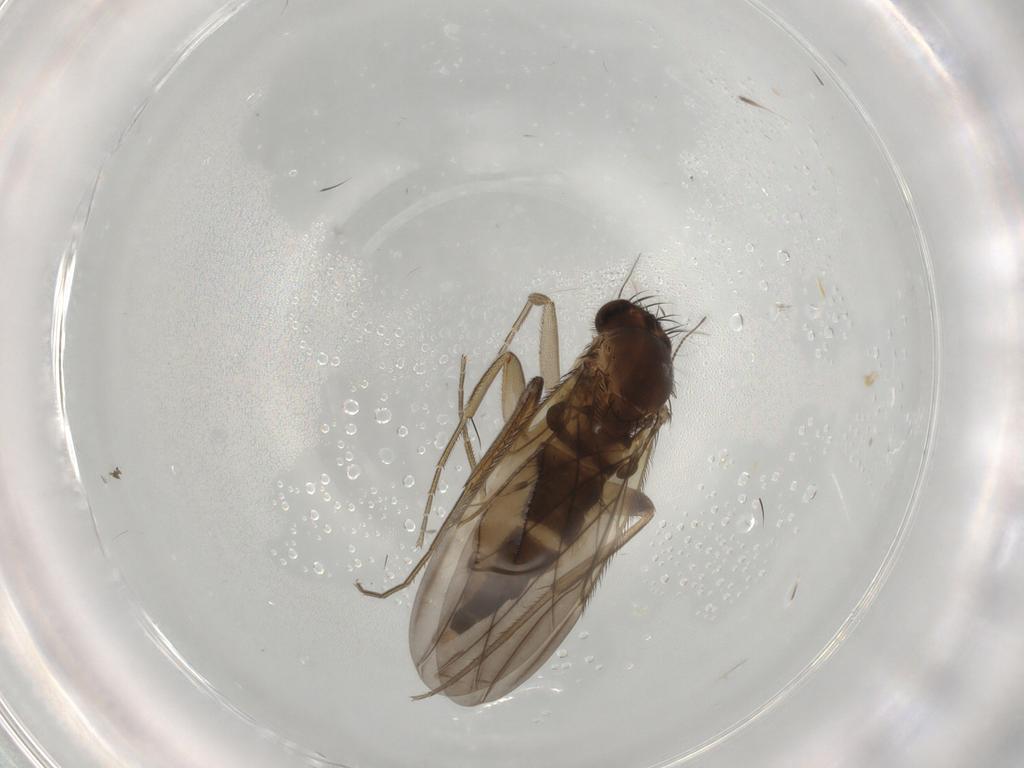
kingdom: Animalia
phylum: Arthropoda
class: Insecta
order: Diptera
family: Phoridae
